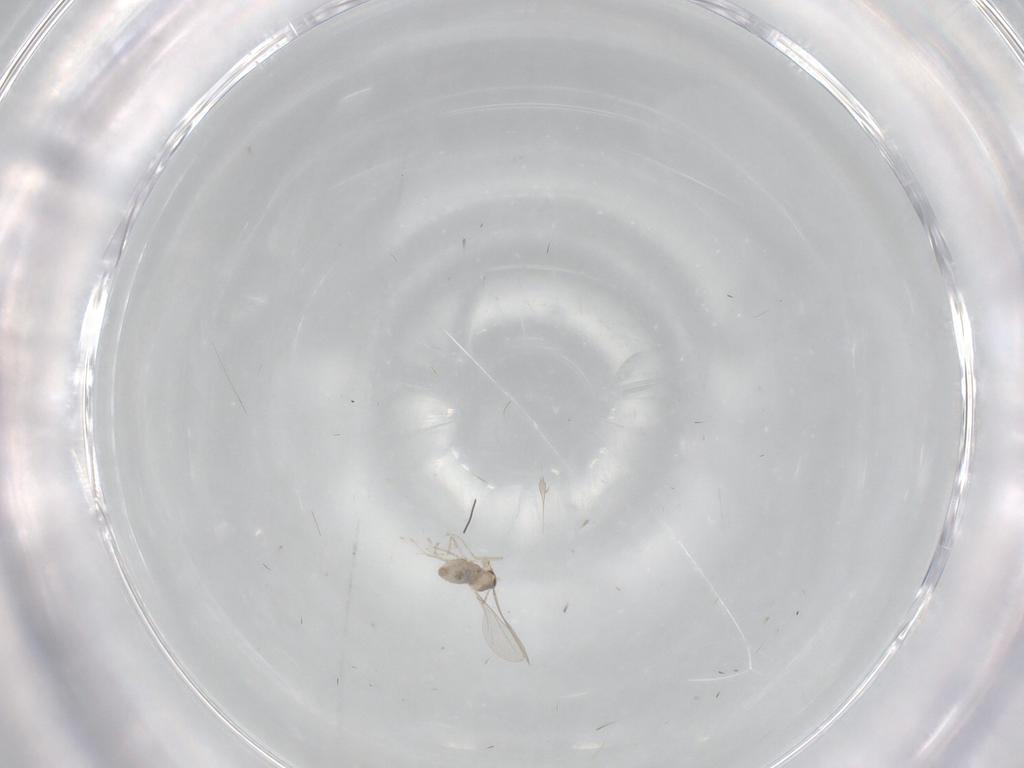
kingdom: Animalia
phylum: Arthropoda
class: Insecta
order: Diptera
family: Cecidomyiidae
